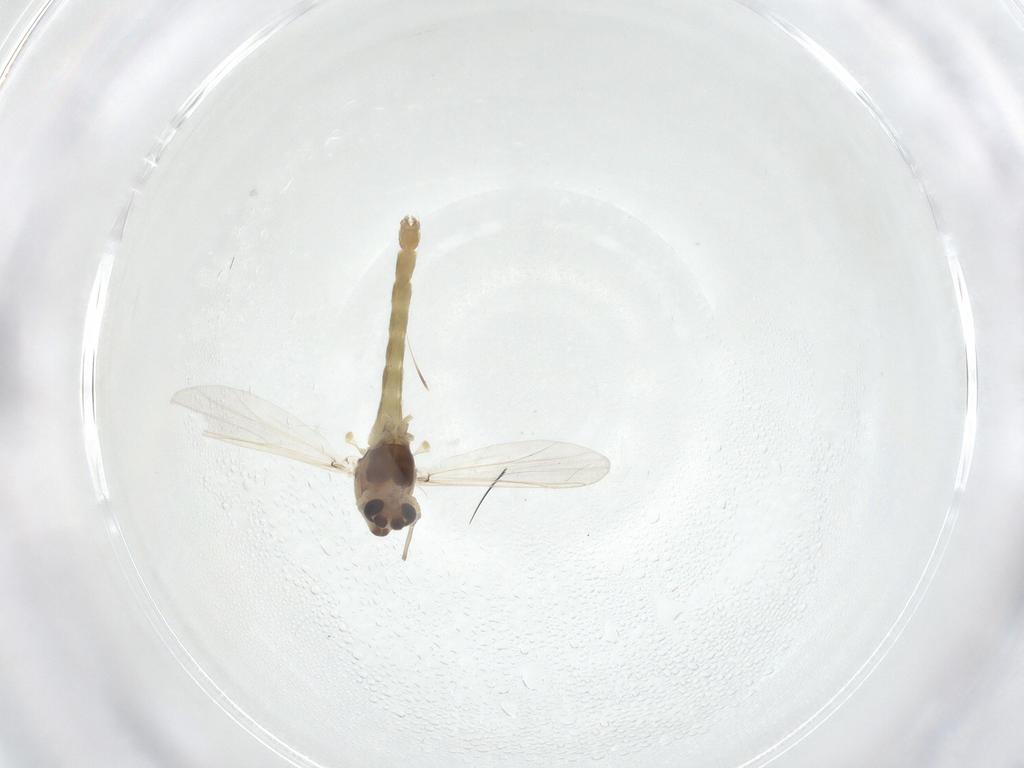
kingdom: Animalia
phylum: Arthropoda
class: Insecta
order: Diptera
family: Chironomidae
